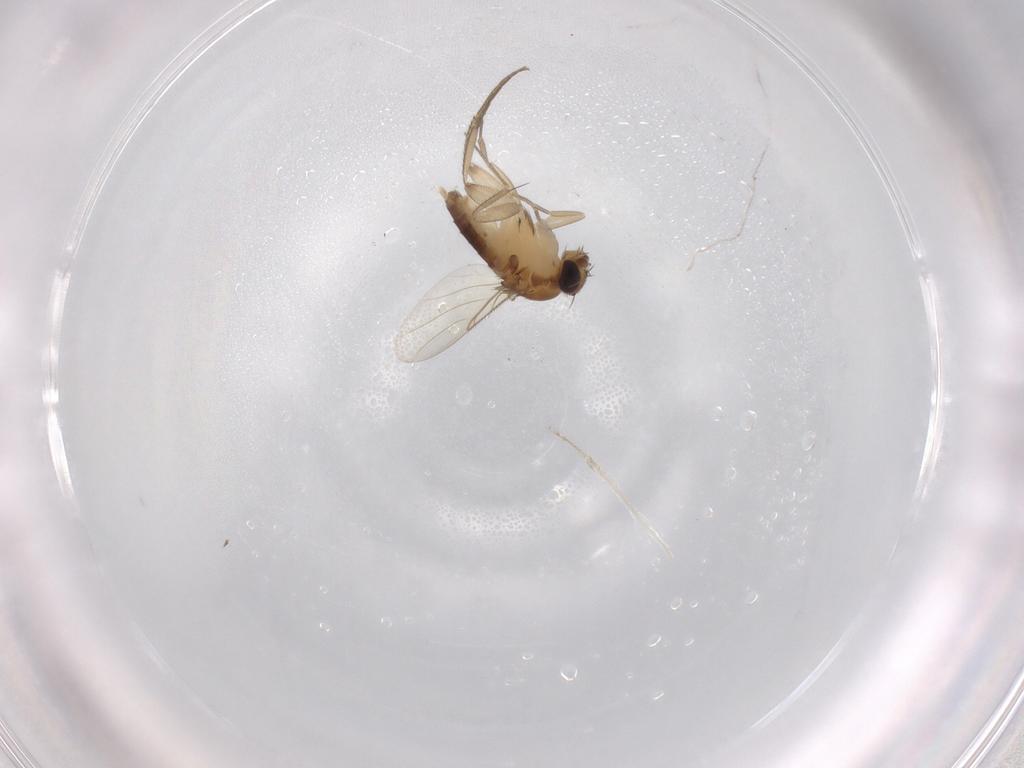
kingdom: Animalia
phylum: Arthropoda
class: Insecta
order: Diptera
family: Phoridae
